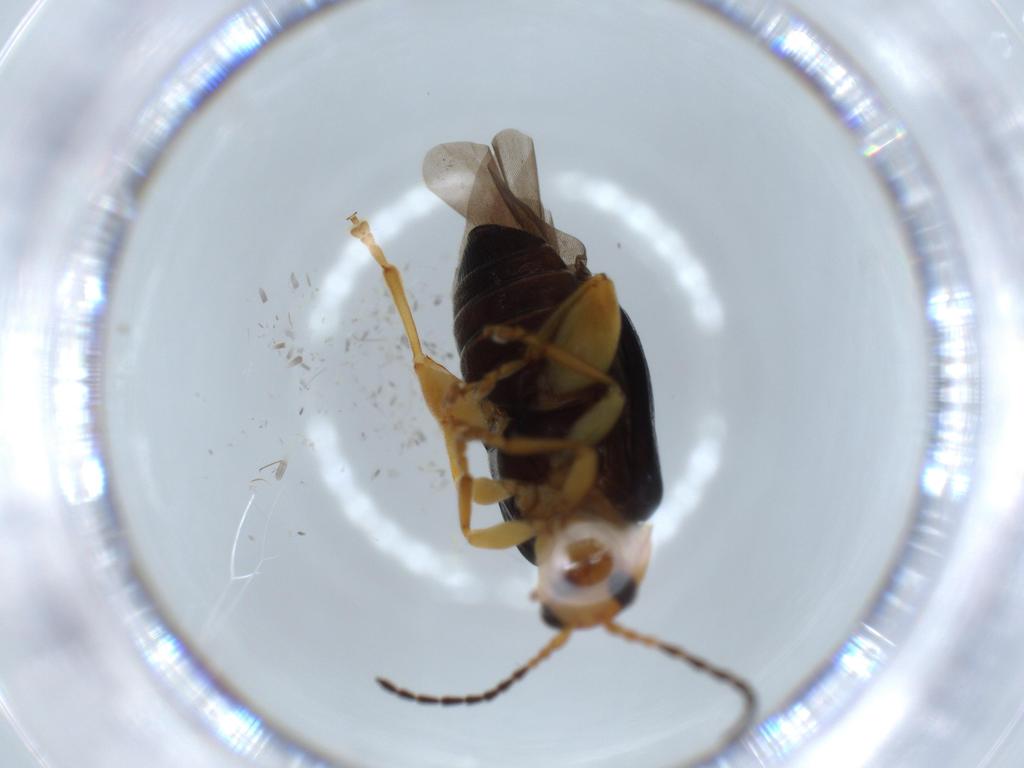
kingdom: Animalia
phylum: Arthropoda
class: Insecta
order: Coleoptera
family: Chrysomelidae
